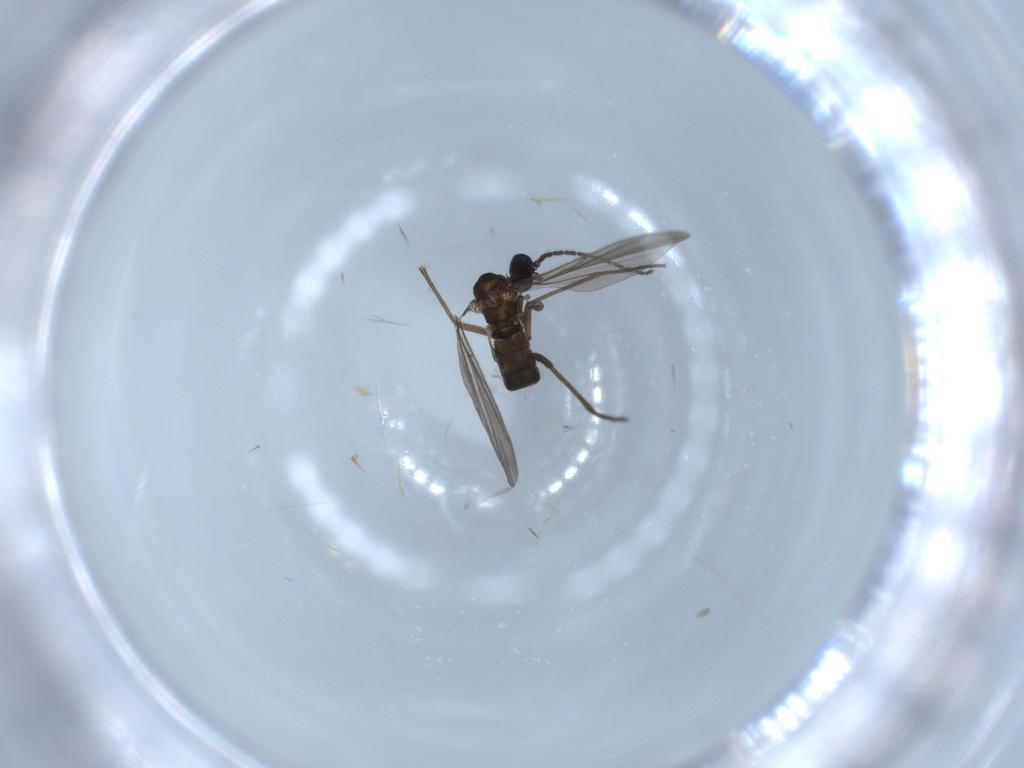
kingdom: Animalia
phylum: Arthropoda
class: Insecta
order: Diptera
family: Sciaridae
